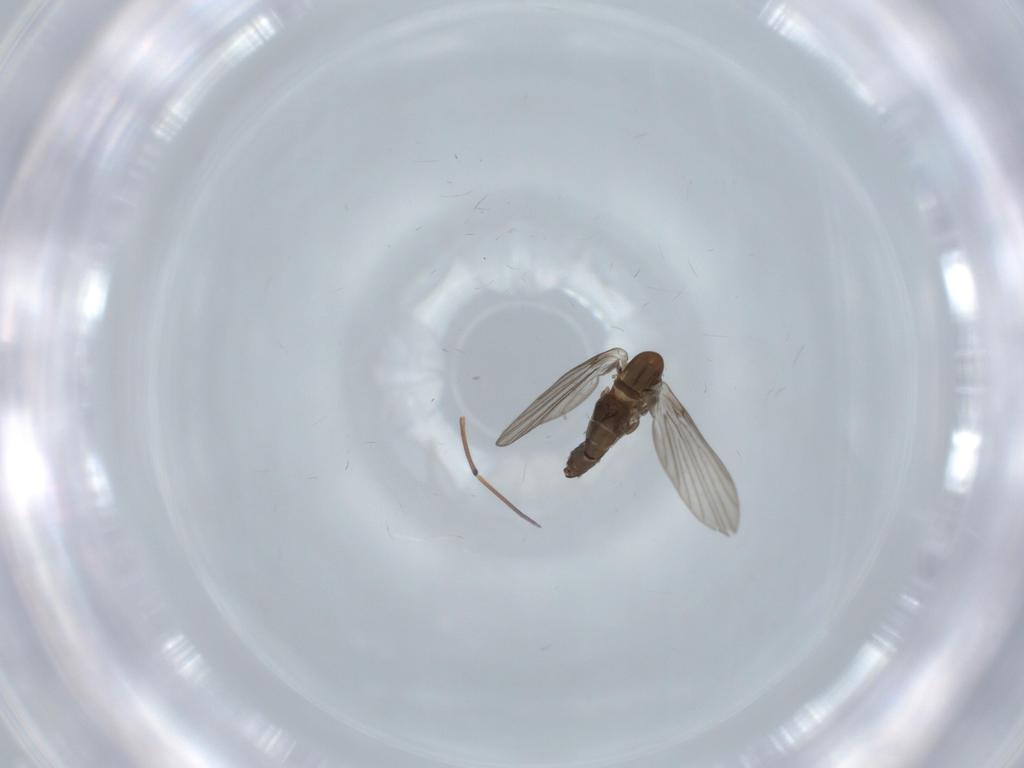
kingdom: Animalia
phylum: Arthropoda
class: Insecta
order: Diptera
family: Psychodidae
